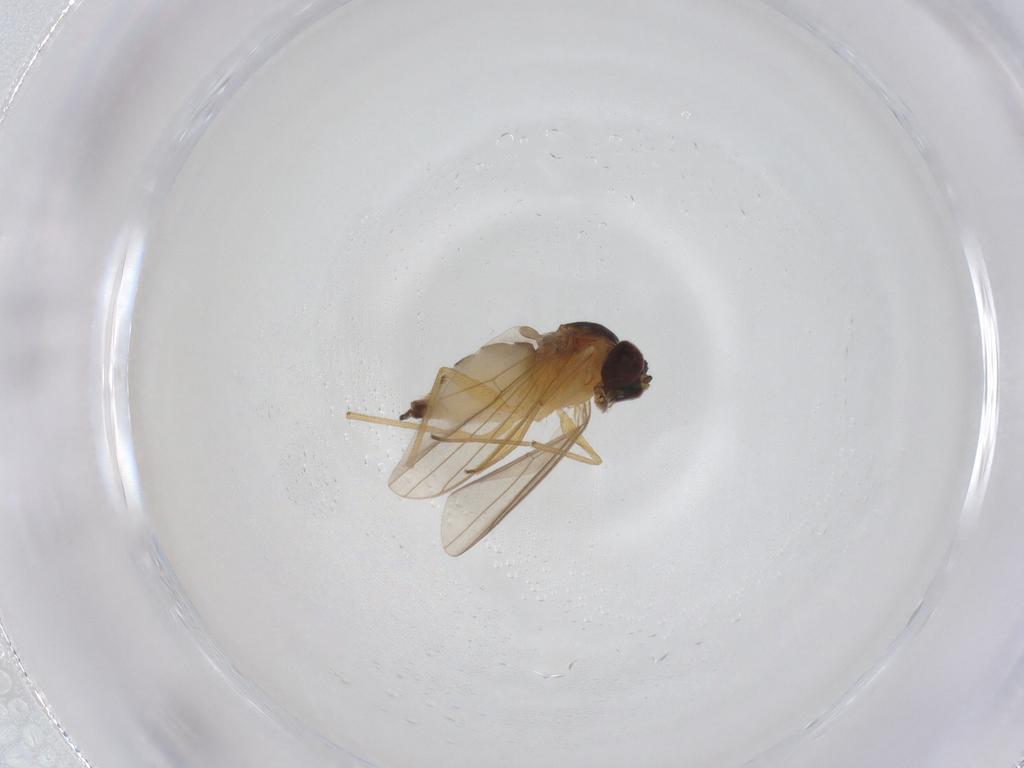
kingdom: Animalia
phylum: Arthropoda
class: Insecta
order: Diptera
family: Dolichopodidae
